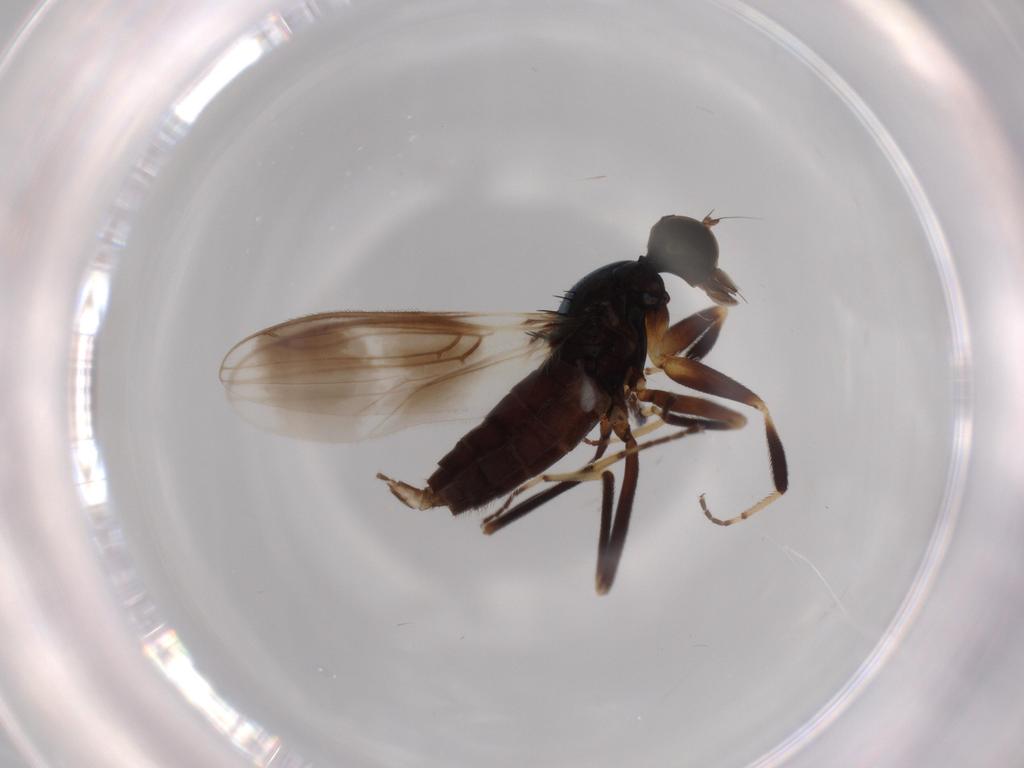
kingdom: Animalia
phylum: Arthropoda
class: Insecta
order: Diptera
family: Hybotidae
